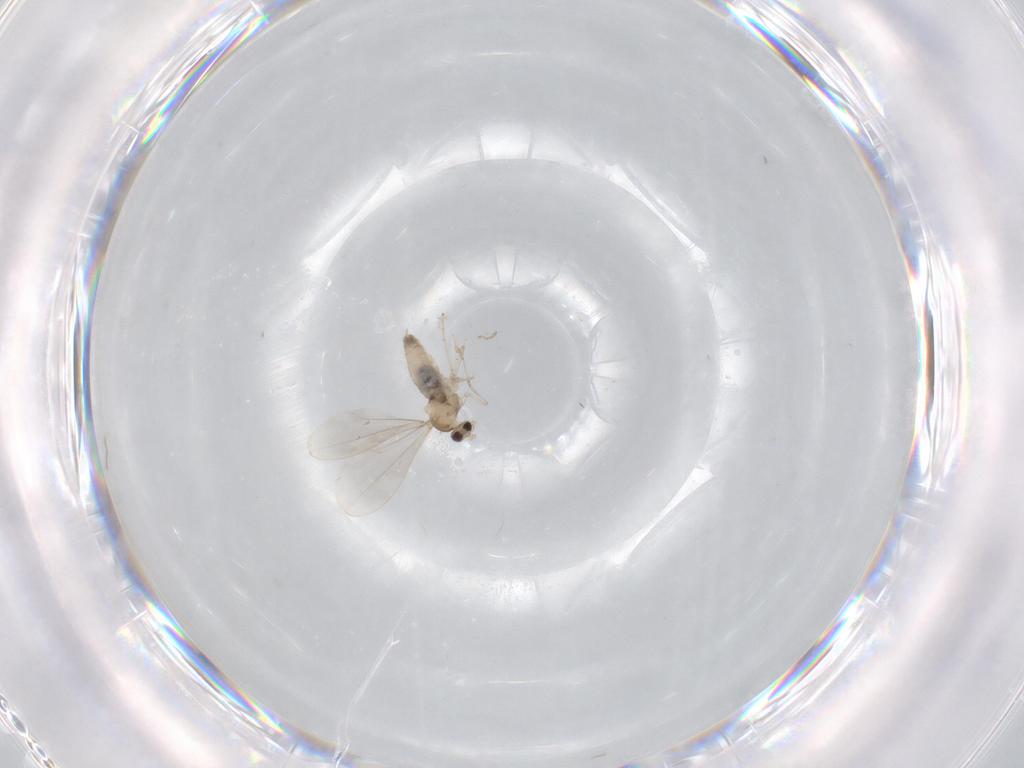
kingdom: Animalia
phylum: Arthropoda
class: Insecta
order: Diptera
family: Cecidomyiidae
